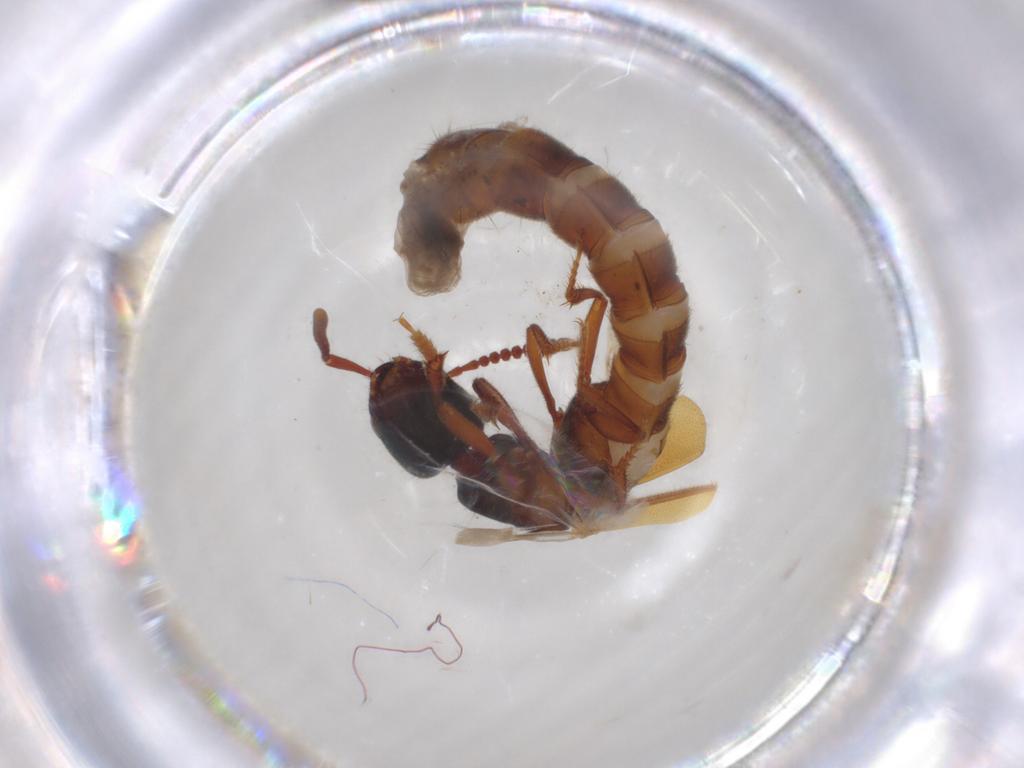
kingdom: Animalia
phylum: Arthropoda
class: Insecta
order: Coleoptera
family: Staphylinidae
